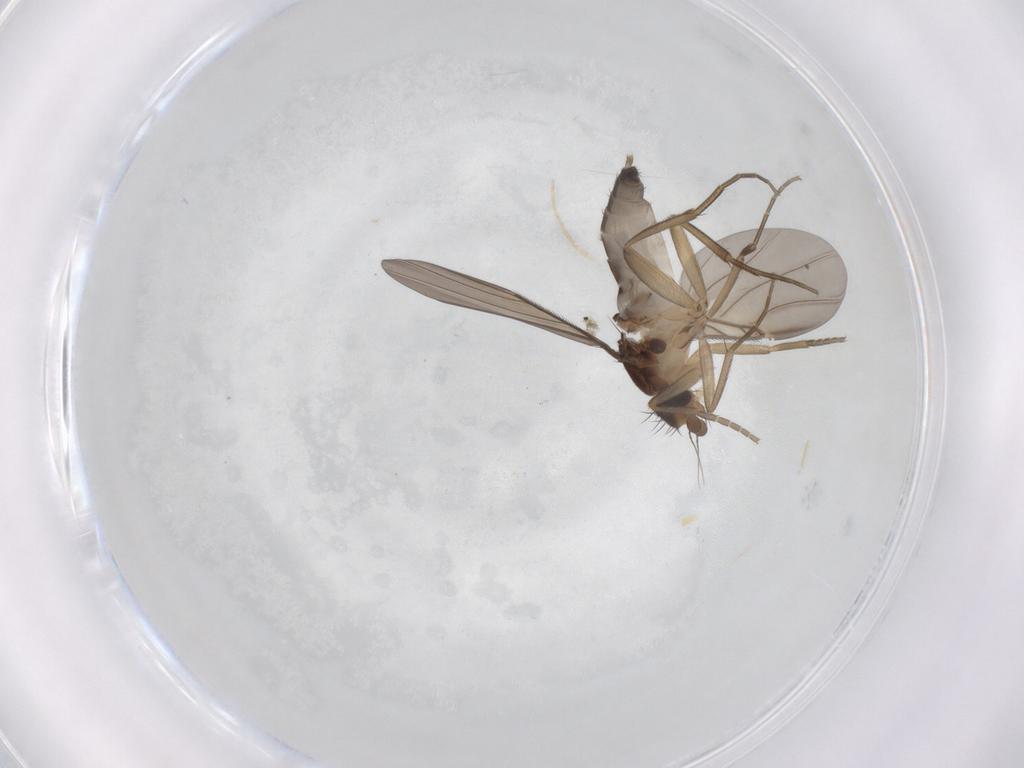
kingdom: Animalia
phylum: Arthropoda
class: Insecta
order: Diptera
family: Phoridae
